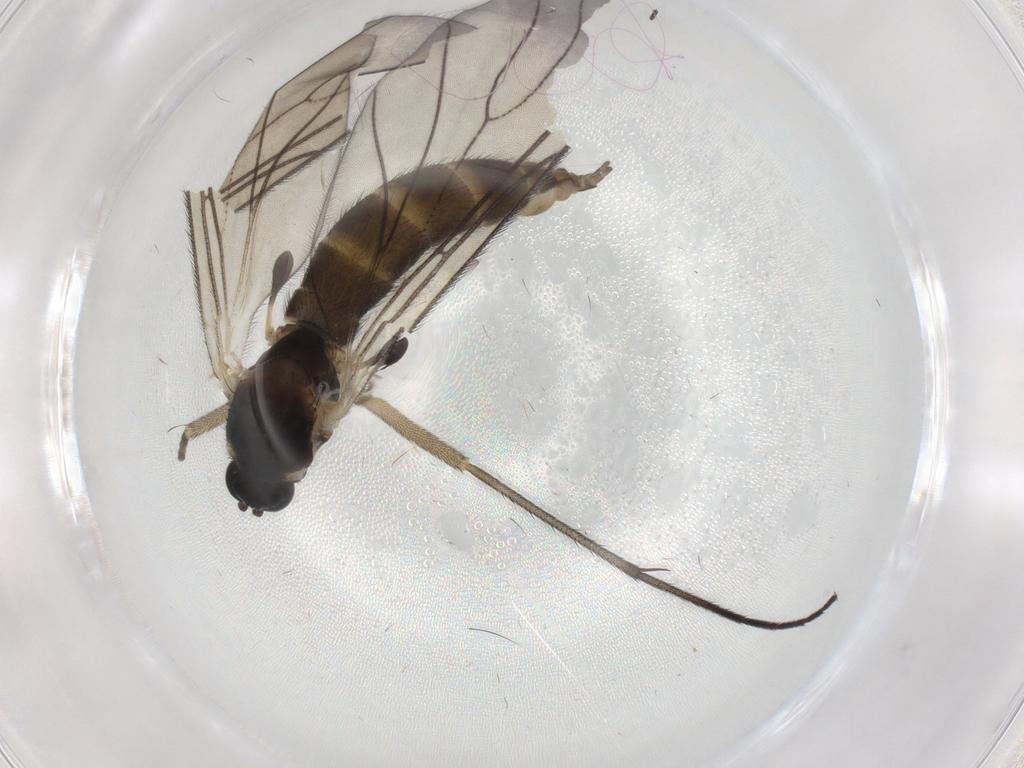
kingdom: Animalia
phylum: Arthropoda
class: Insecta
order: Diptera
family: Sciaridae
